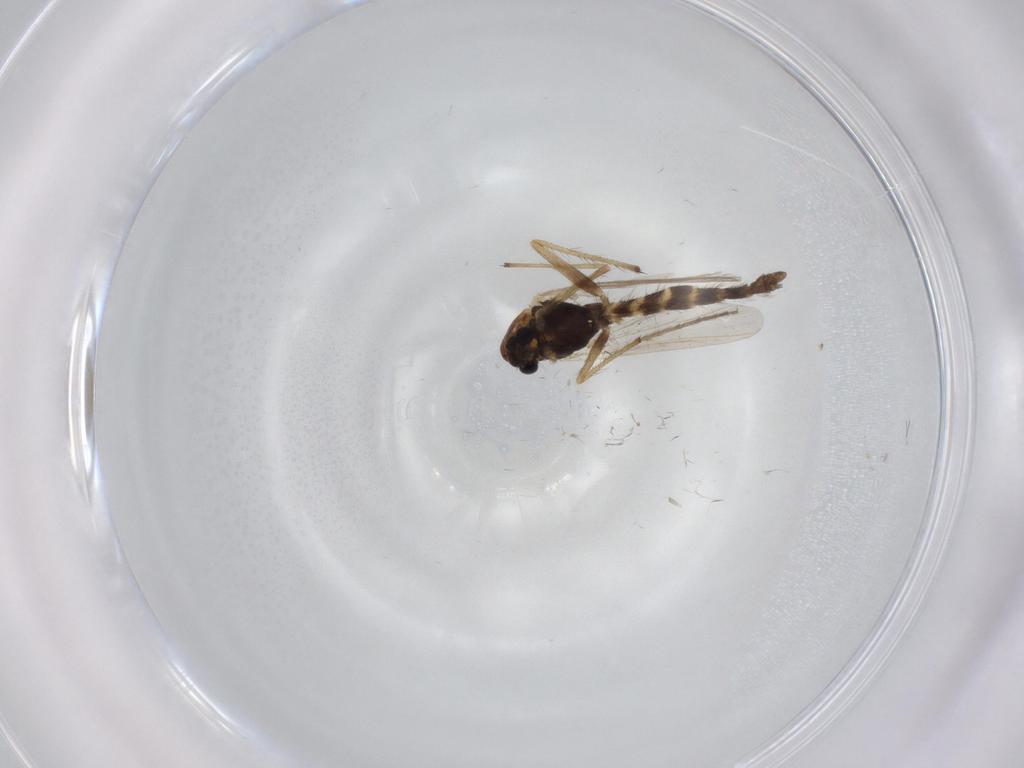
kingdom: Animalia
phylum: Arthropoda
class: Insecta
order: Diptera
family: Chironomidae
